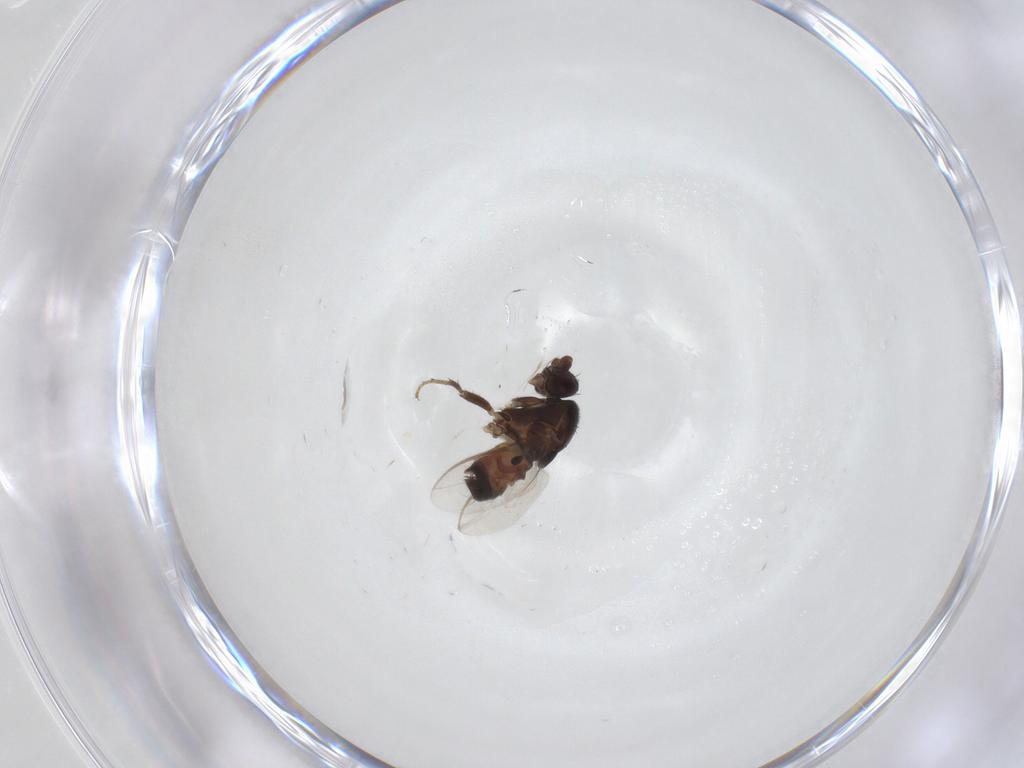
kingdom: Animalia
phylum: Arthropoda
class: Insecta
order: Diptera
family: Sphaeroceridae
